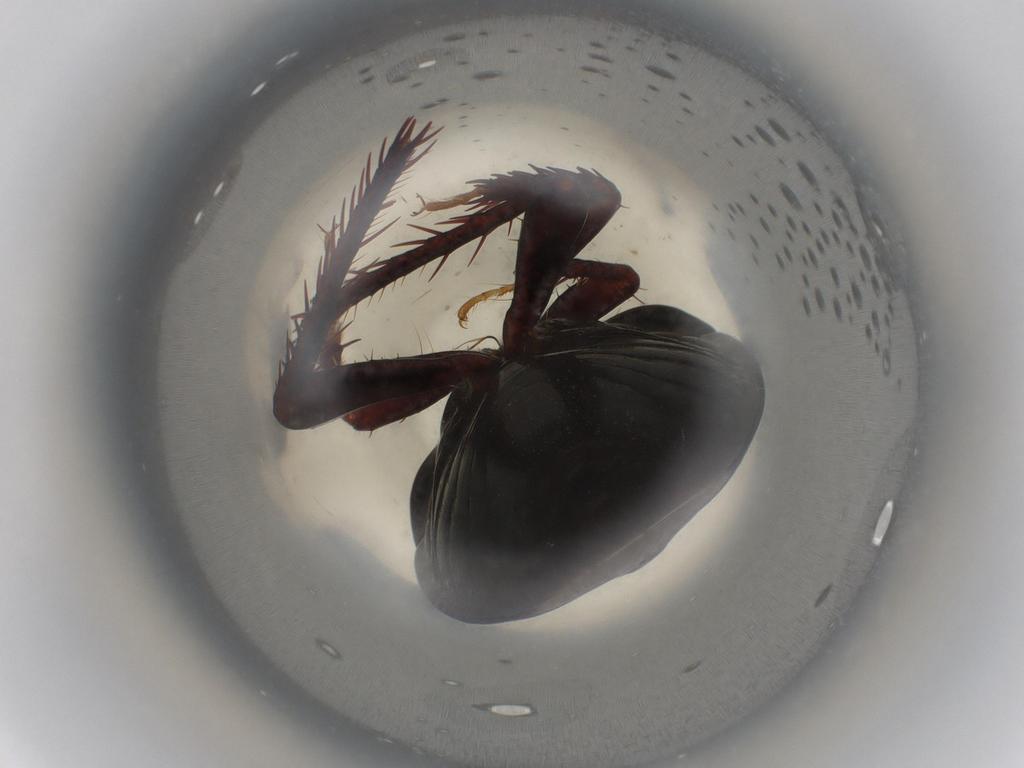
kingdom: Animalia
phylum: Arthropoda
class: Insecta
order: Hemiptera
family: Cydnidae
